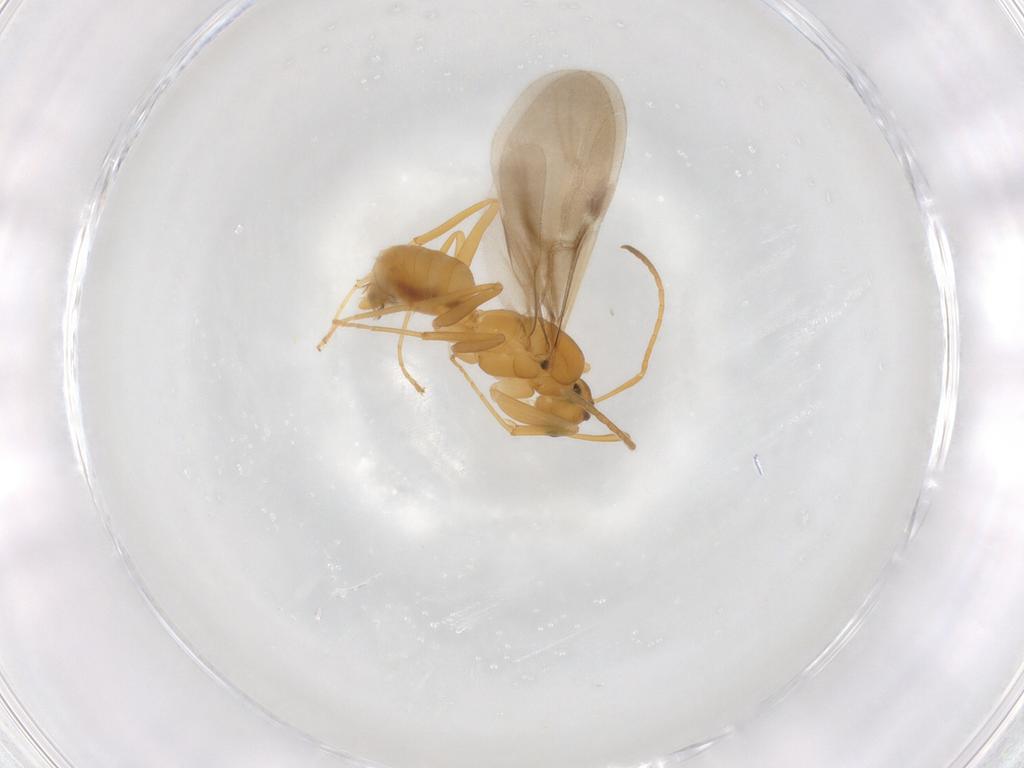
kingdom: Animalia
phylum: Arthropoda
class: Insecta
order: Hymenoptera
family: Formicidae
